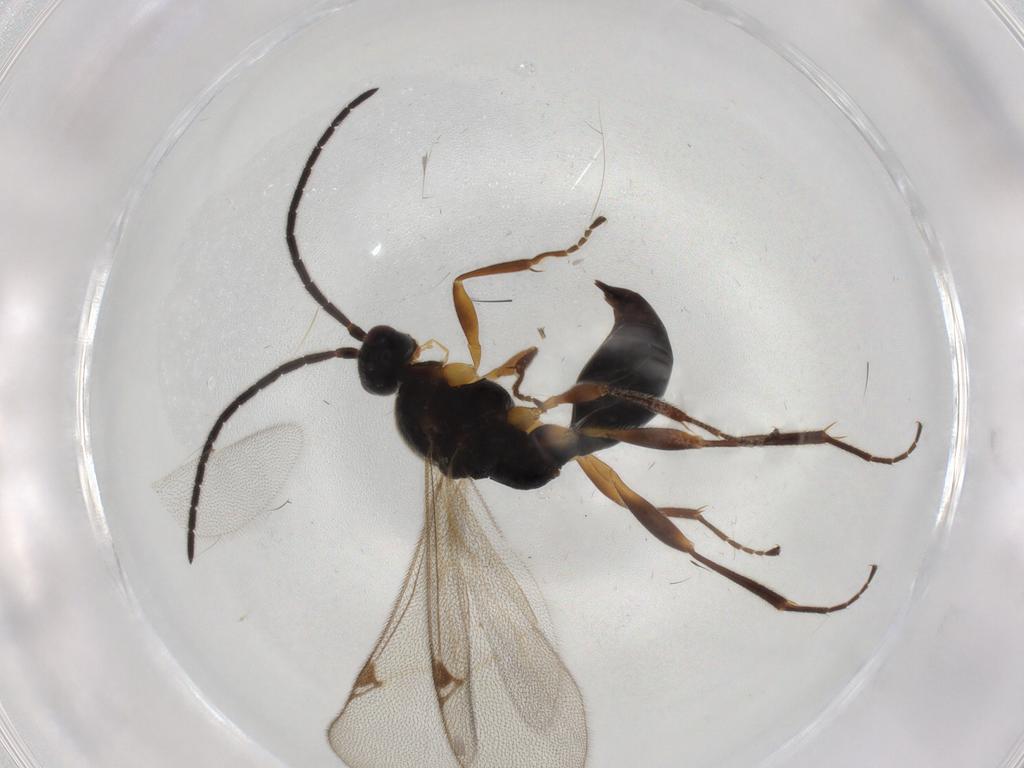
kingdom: Animalia
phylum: Arthropoda
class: Insecta
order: Hymenoptera
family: Proctotrupidae
